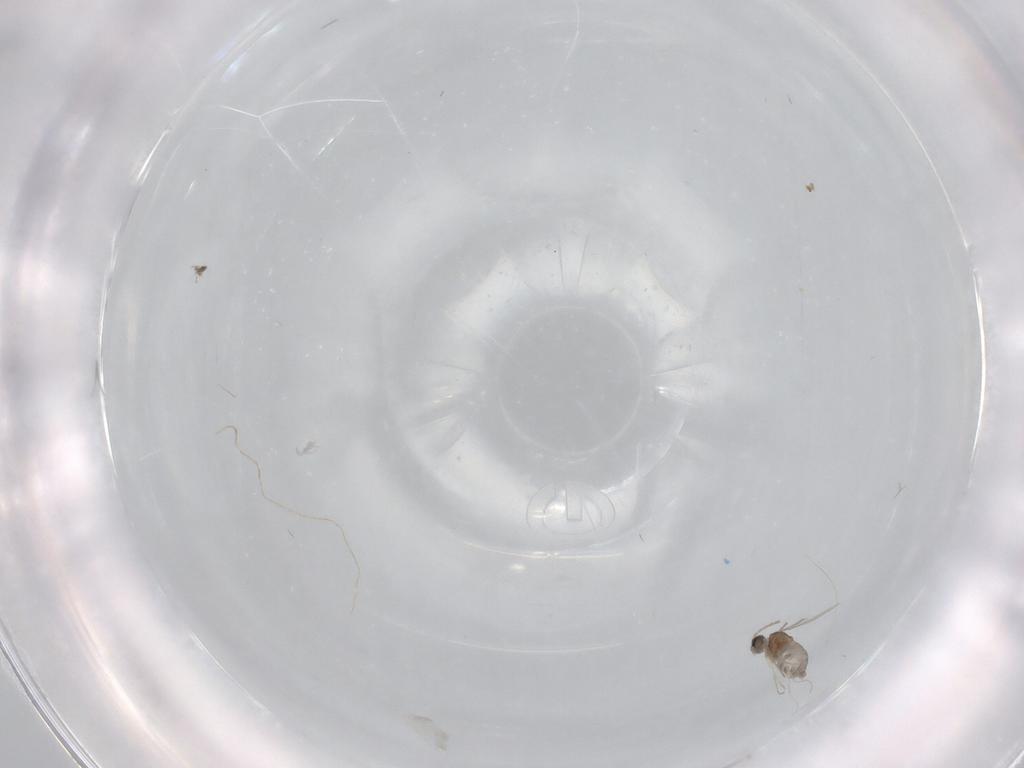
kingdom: Animalia
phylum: Arthropoda
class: Insecta
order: Diptera
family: Cecidomyiidae
